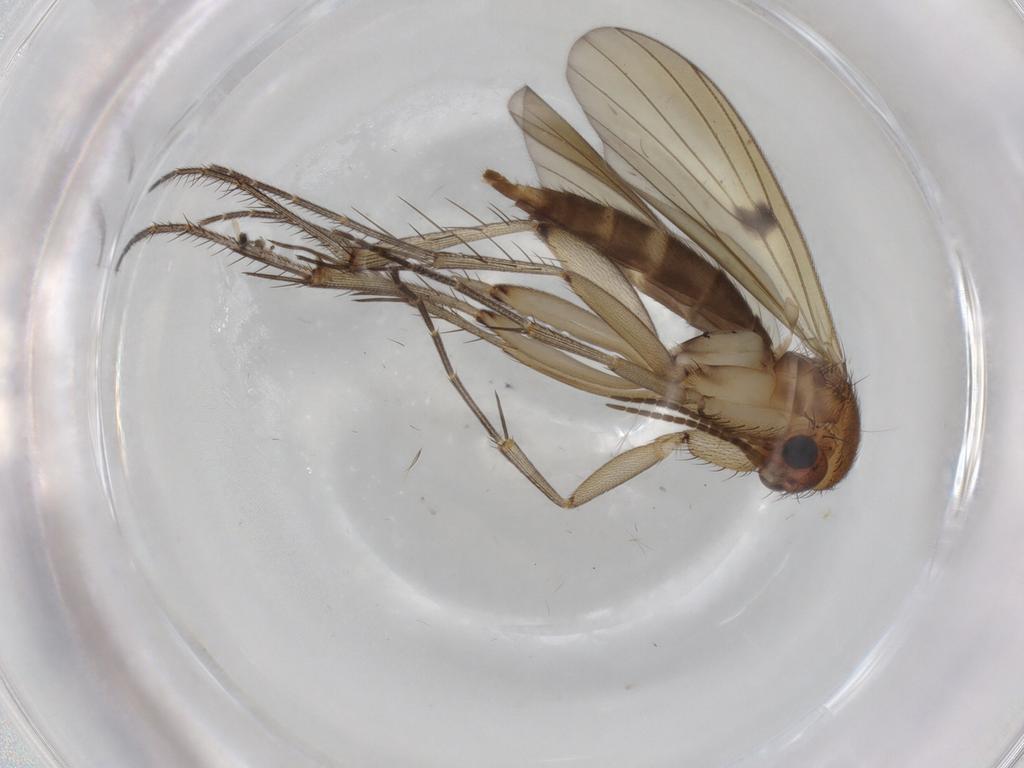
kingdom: Animalia
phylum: Arthropoda
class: Insecta
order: Diptera
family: Mycetophilidae
